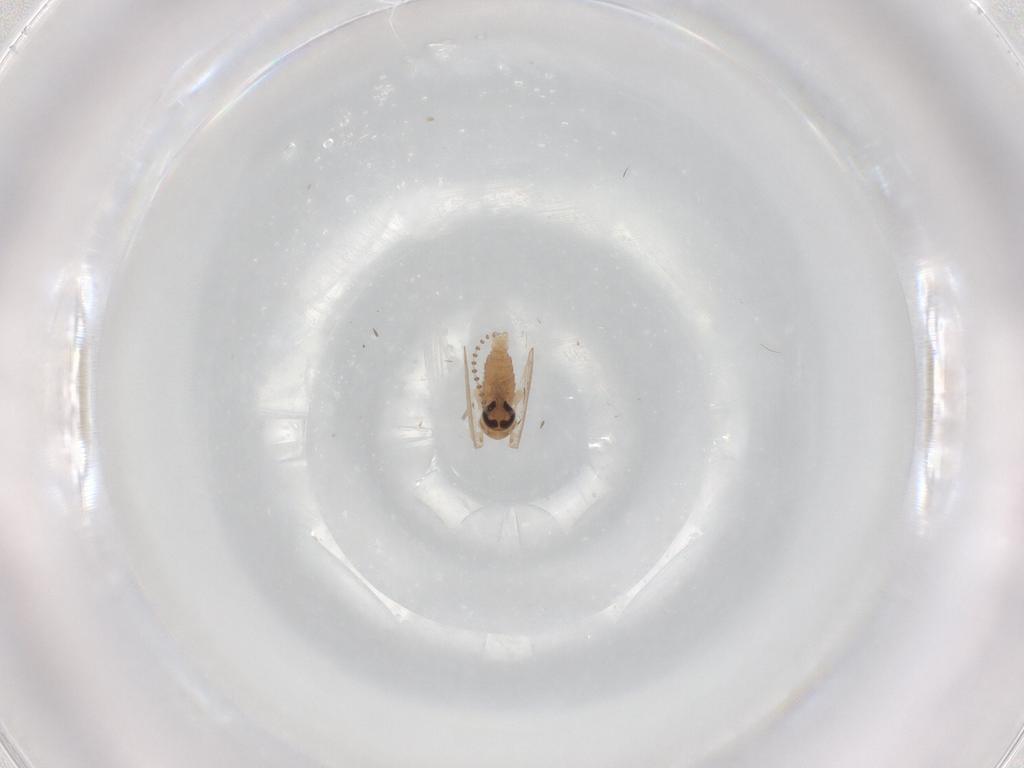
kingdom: Animalia
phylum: Arthropoda
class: Insecta
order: Diptera
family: Psychodidae
